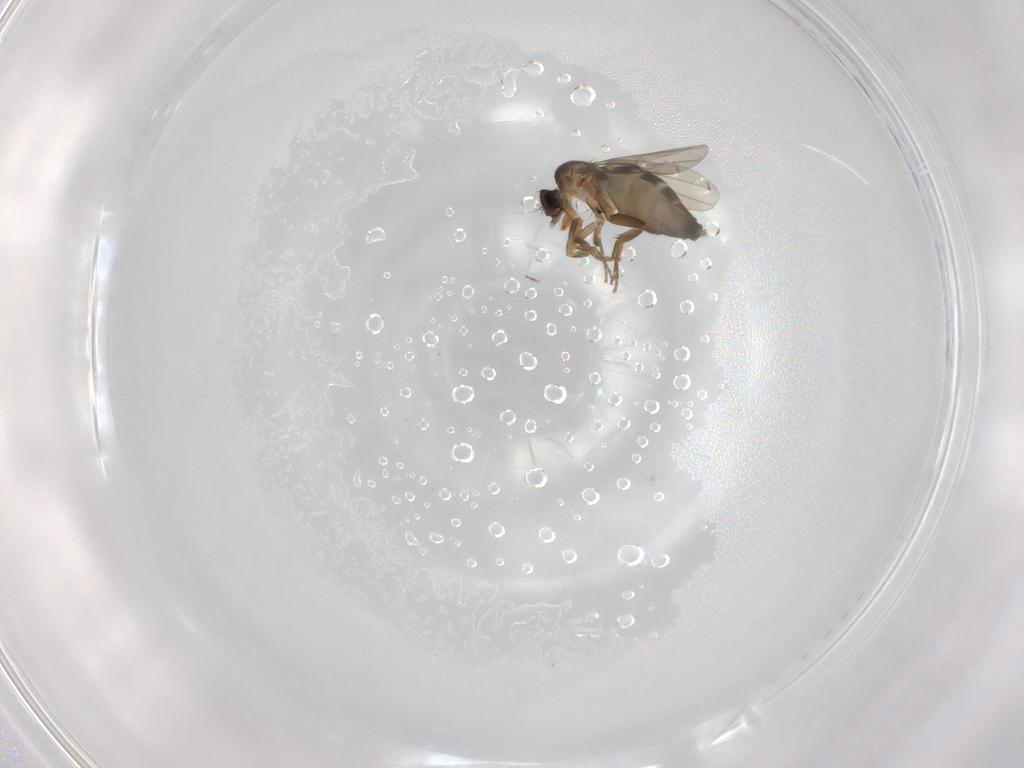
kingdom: Animalia
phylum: Arthropoda
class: Insecta
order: Diptera
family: Phoridae
